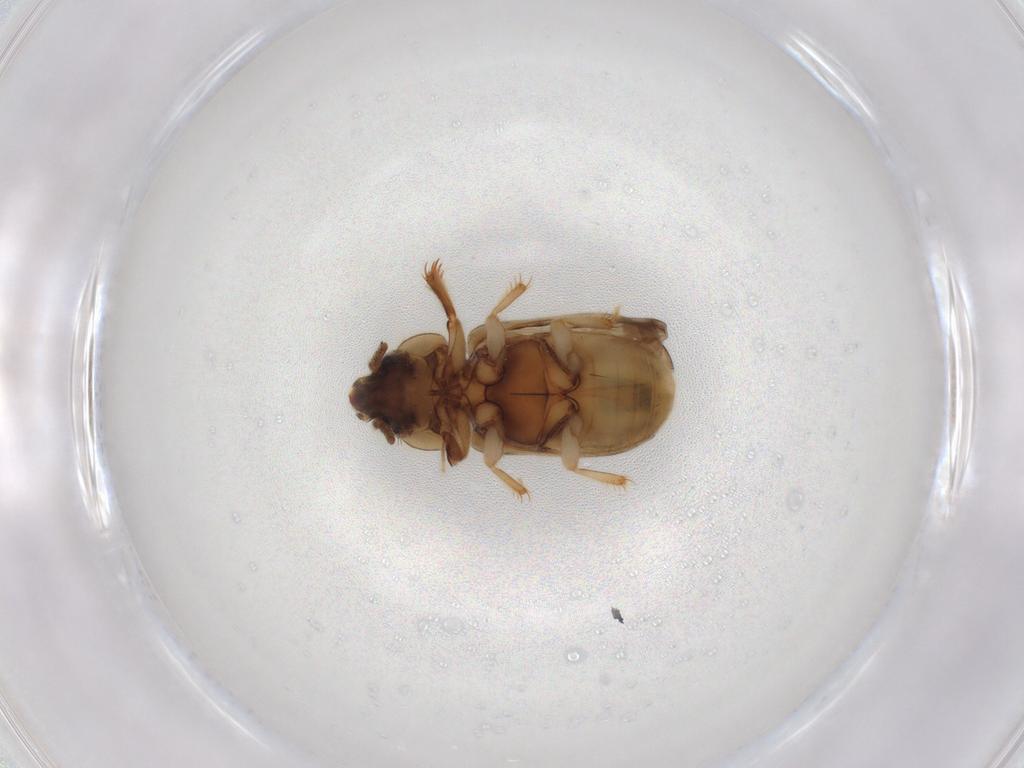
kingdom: Animalia
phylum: Arthropoda
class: Insecta
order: Coleoptera
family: Heteroceridae
